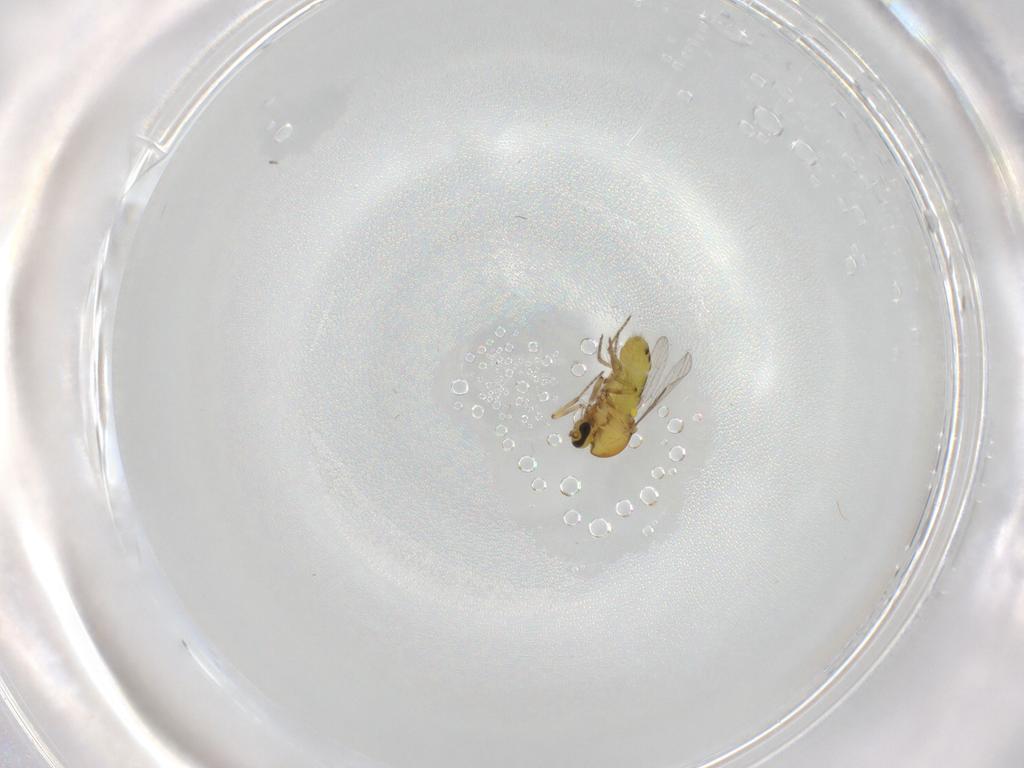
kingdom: Animalia
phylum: Arthropoda
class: Insecta
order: Diptera
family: Ceratopogonidae
